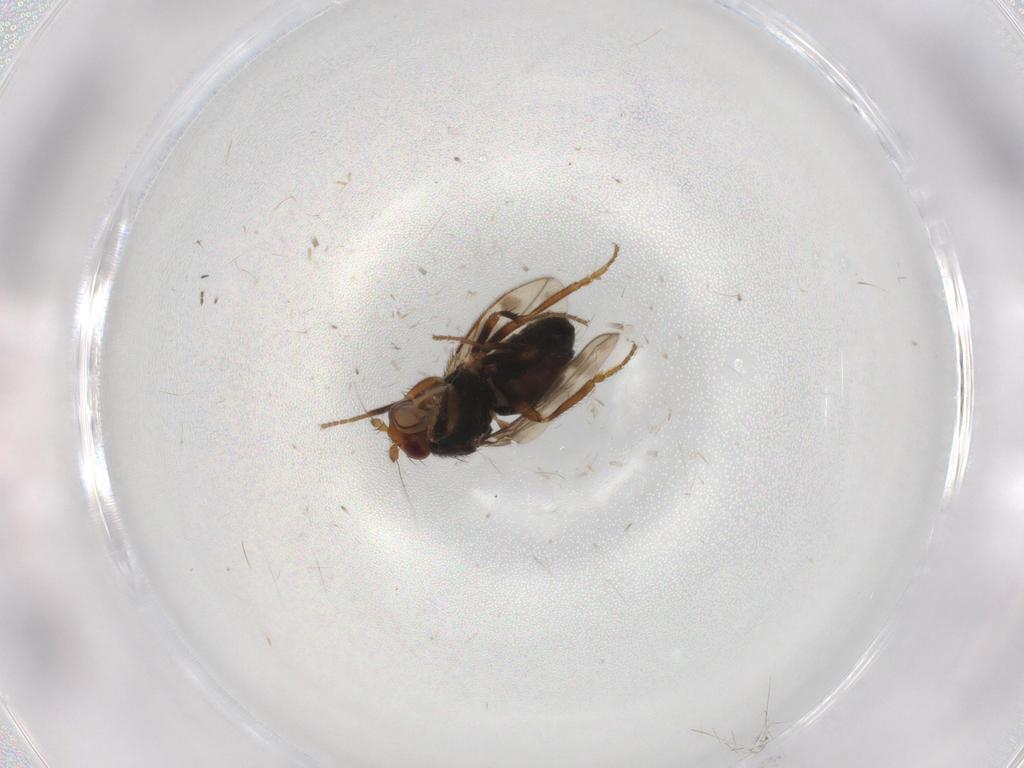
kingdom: Animalia
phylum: Arthropoda
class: Insecta
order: Diptera
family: Sphaeroceridae
